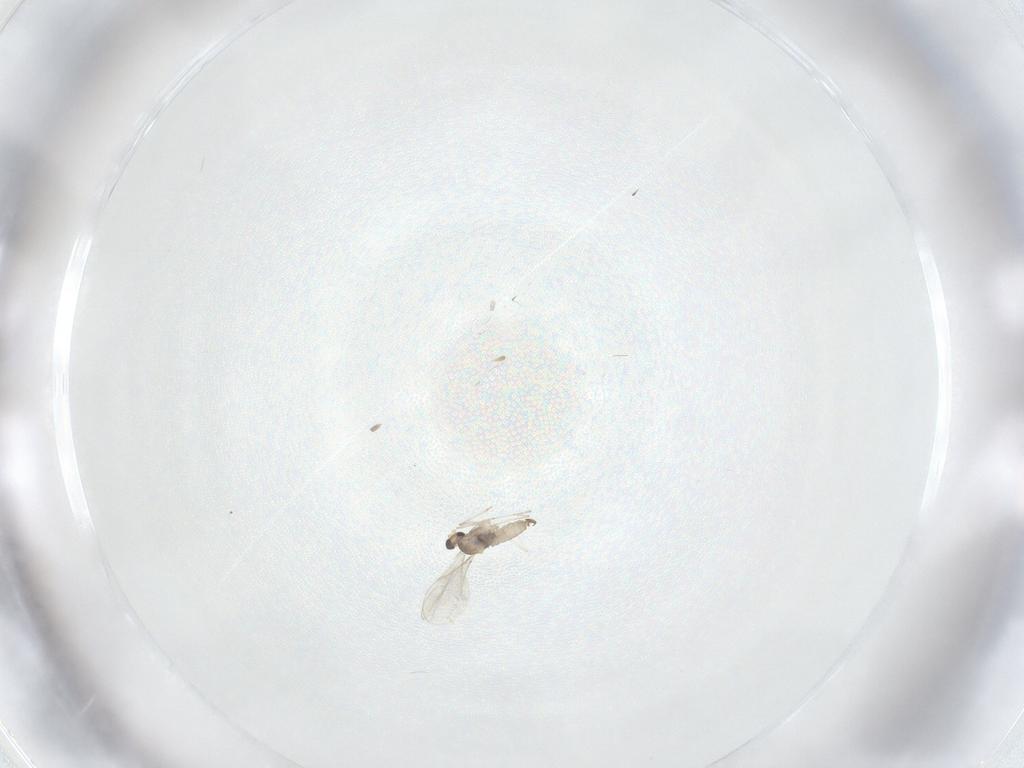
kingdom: Animalia
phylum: Arthropoda
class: Insecta
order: Diptera
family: Cecidomyiidae
